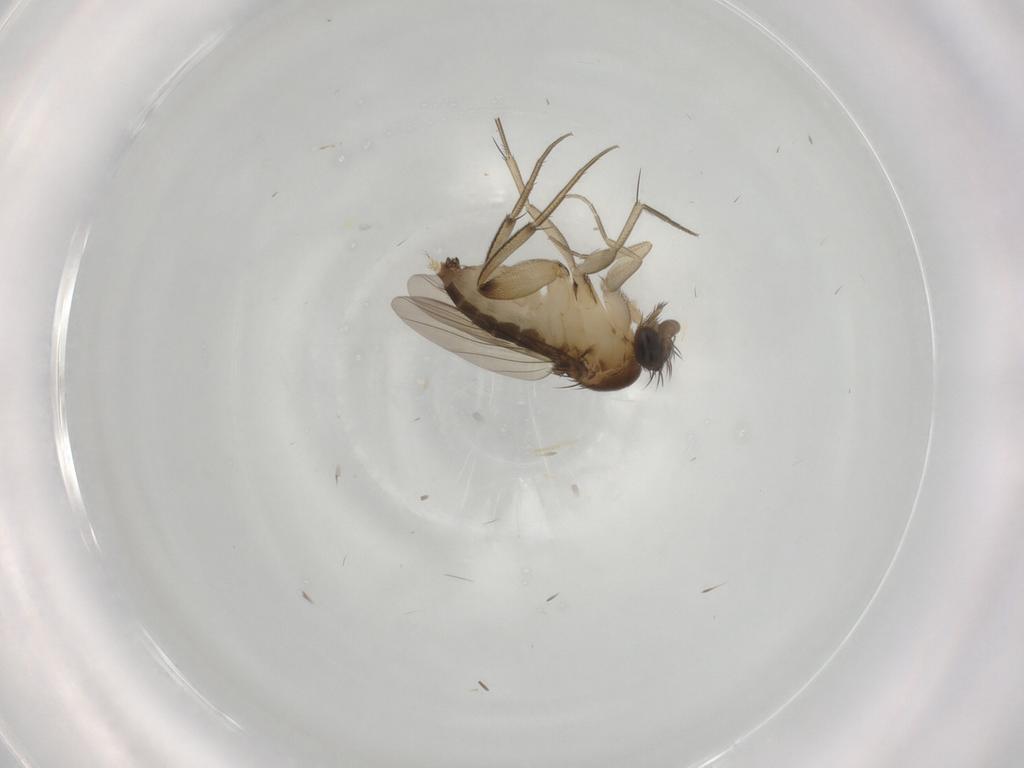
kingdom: Animalia
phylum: Arthropoda
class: Insecta
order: Diptera
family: Phoridae
